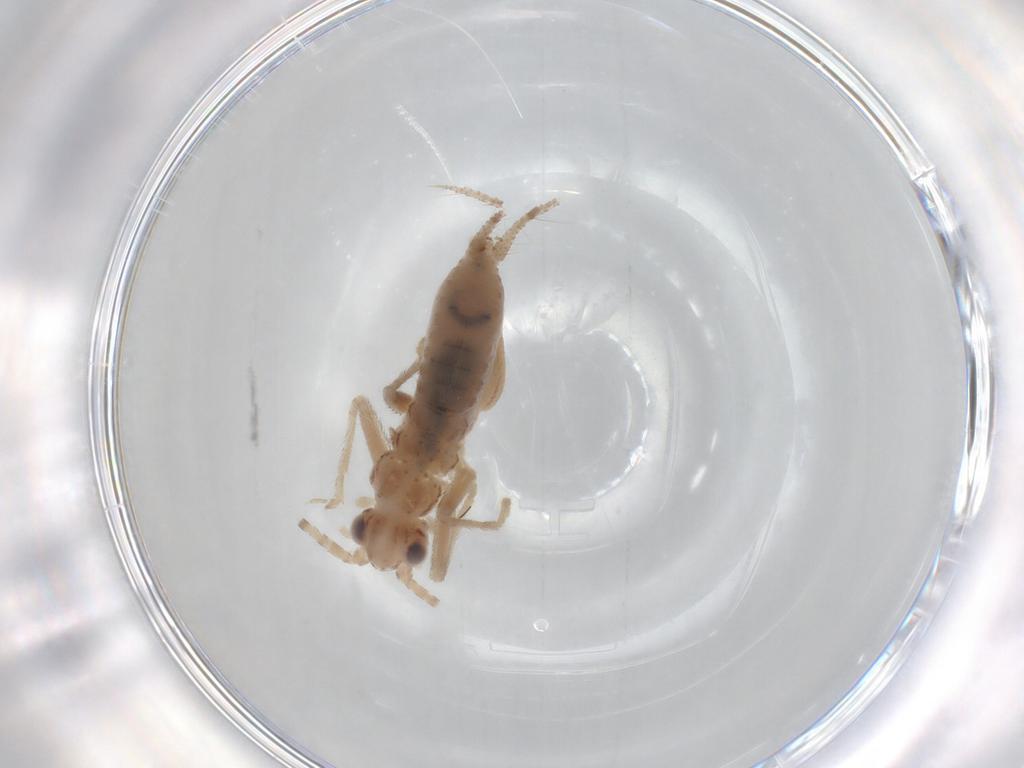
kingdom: Animalia
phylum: Arthropoda
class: Insecta
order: Orthoptera
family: Trigonidiidae
